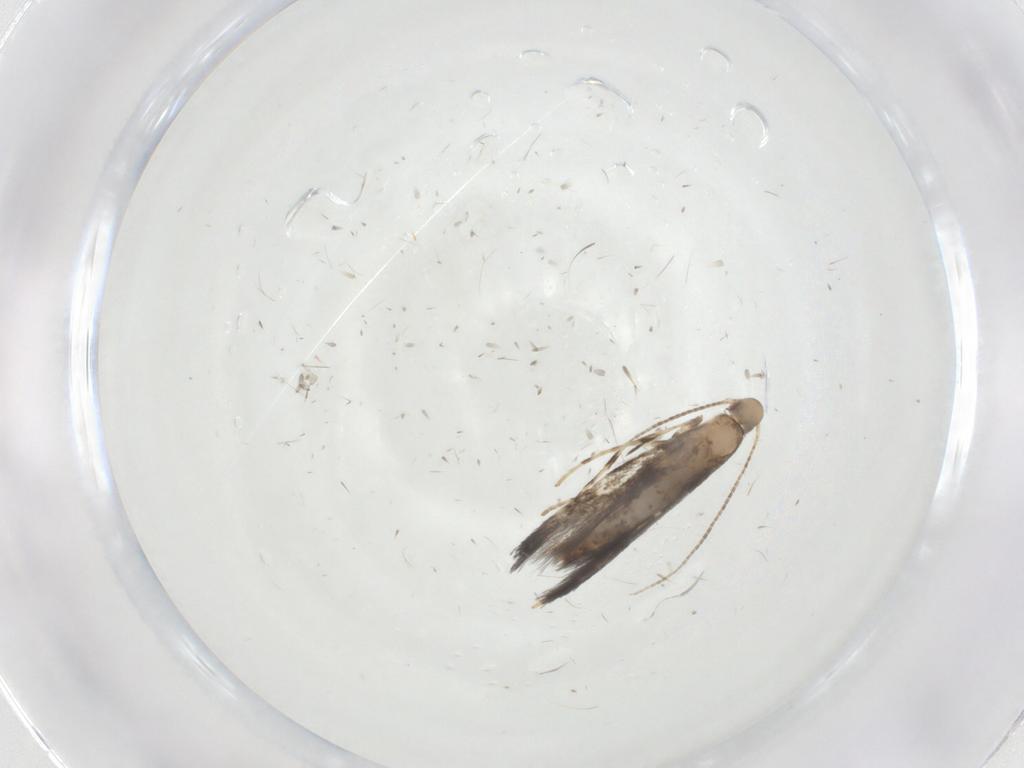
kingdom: Animalia
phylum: Arthropoda
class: Insecta
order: Lepidoptera
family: Gracillariidae
